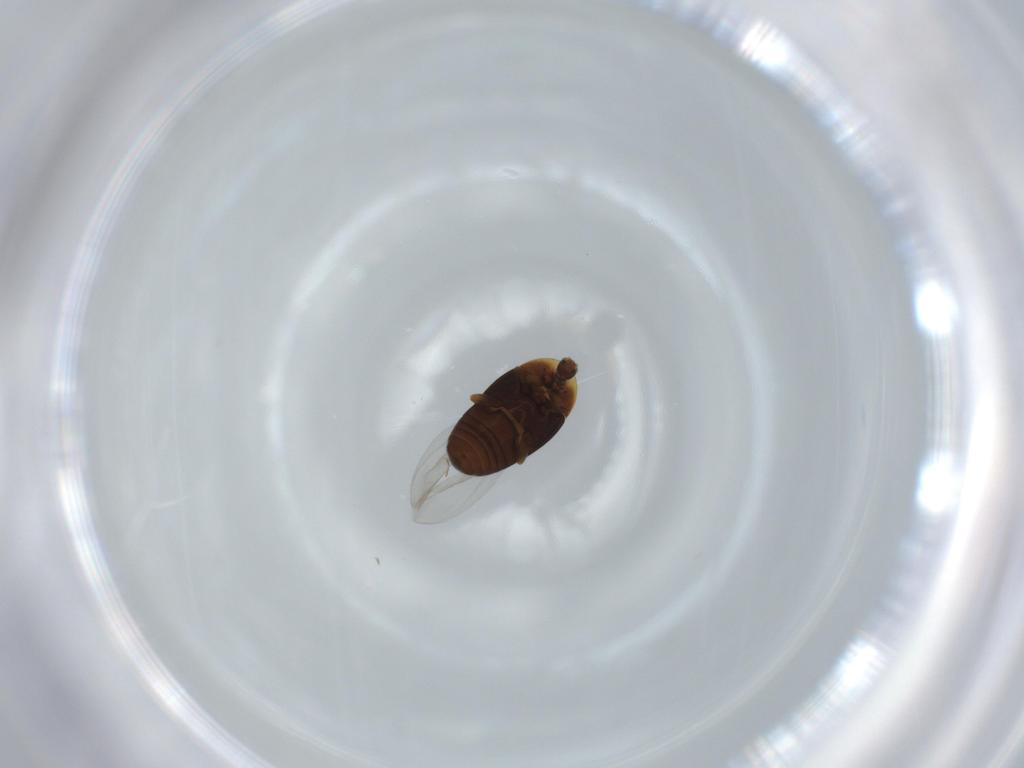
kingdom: Animalia
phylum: Arthropoda
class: Insecta
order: Coleoptera
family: Corylophidae
